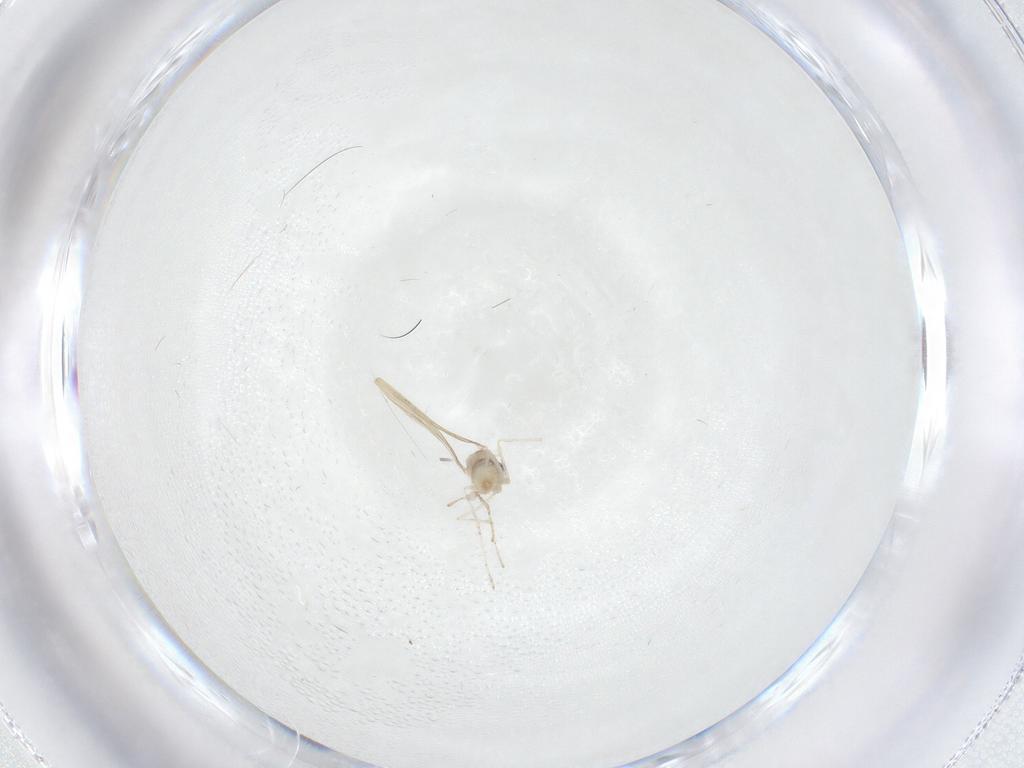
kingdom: Animalia
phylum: Arthropoda
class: Insecta
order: Diptera
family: Cecidomyiidae
